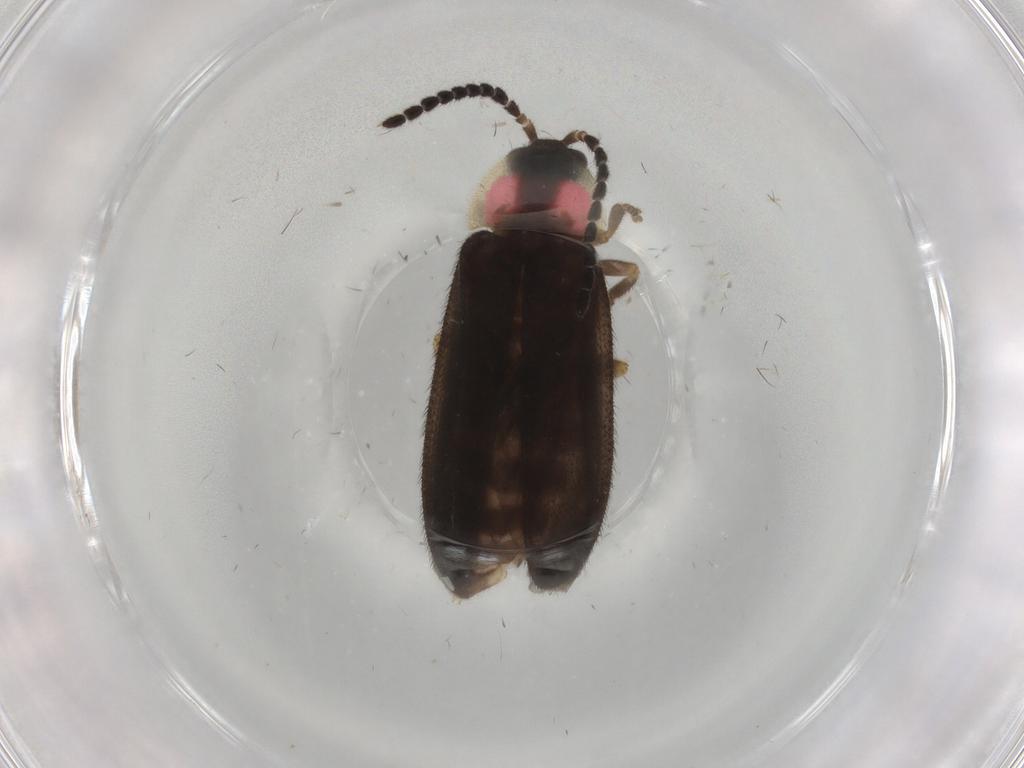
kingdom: Animalia
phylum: Arthropoda
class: Insecta
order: Coleoptera
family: Lampyridae
